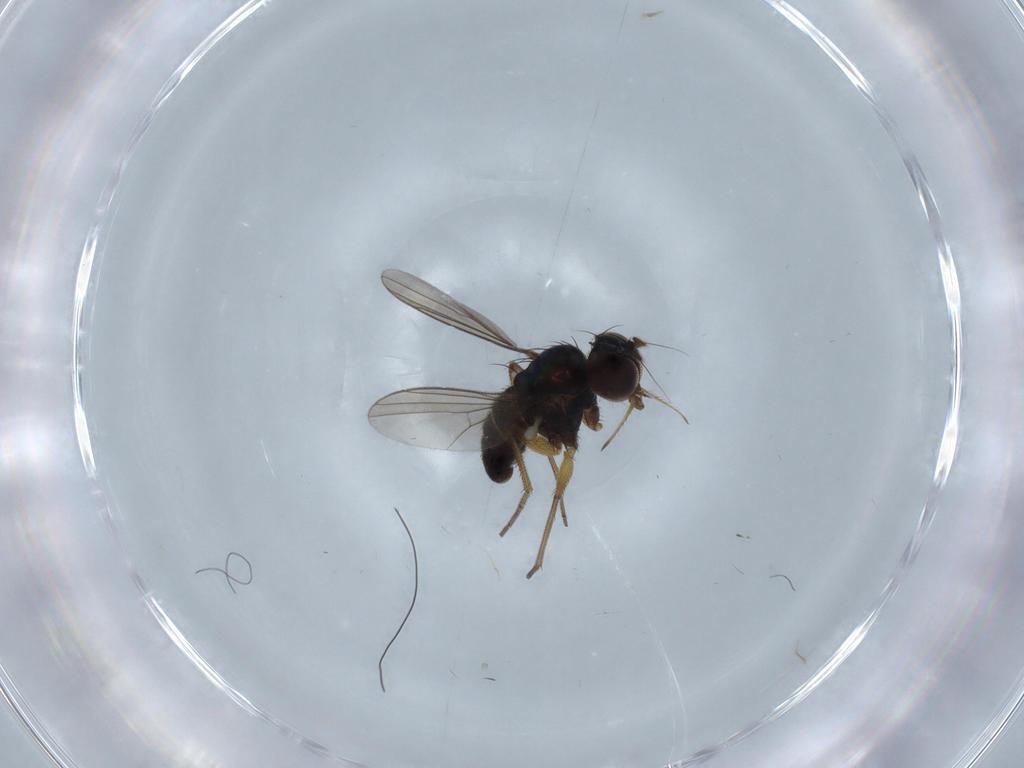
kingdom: Animalia
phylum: Arthropoda
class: Insecta
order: Diptera
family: Dolichopodidae
